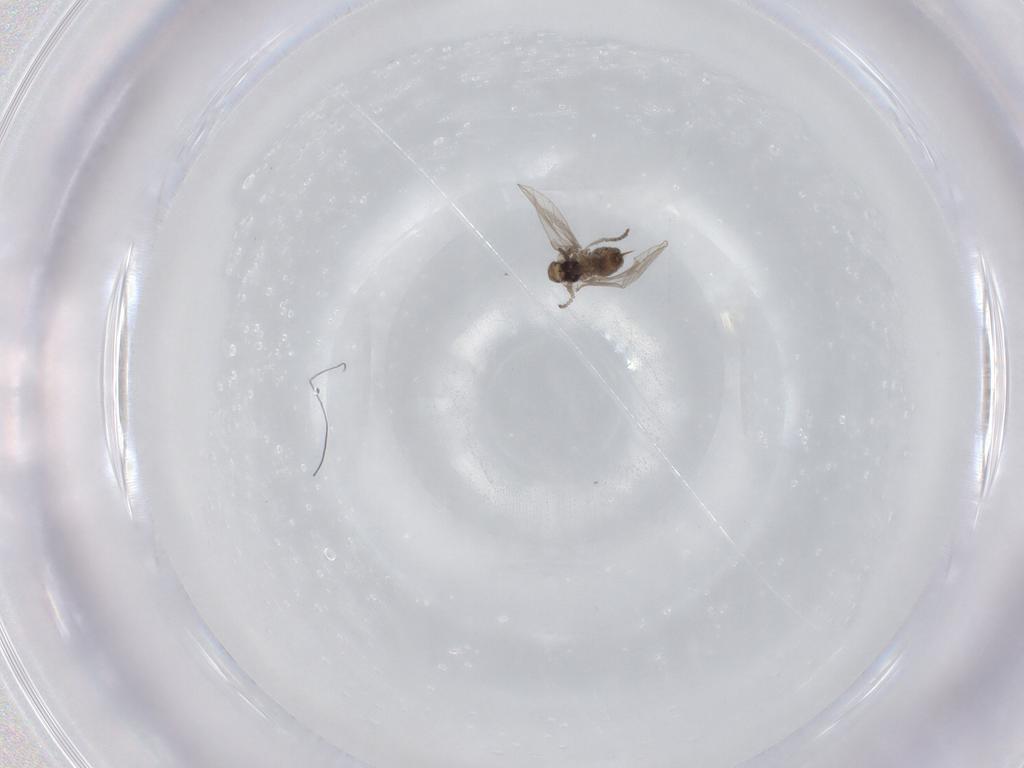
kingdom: Animalia
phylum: Arthropoda
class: Insecta
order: Diptera
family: Psychodidae
